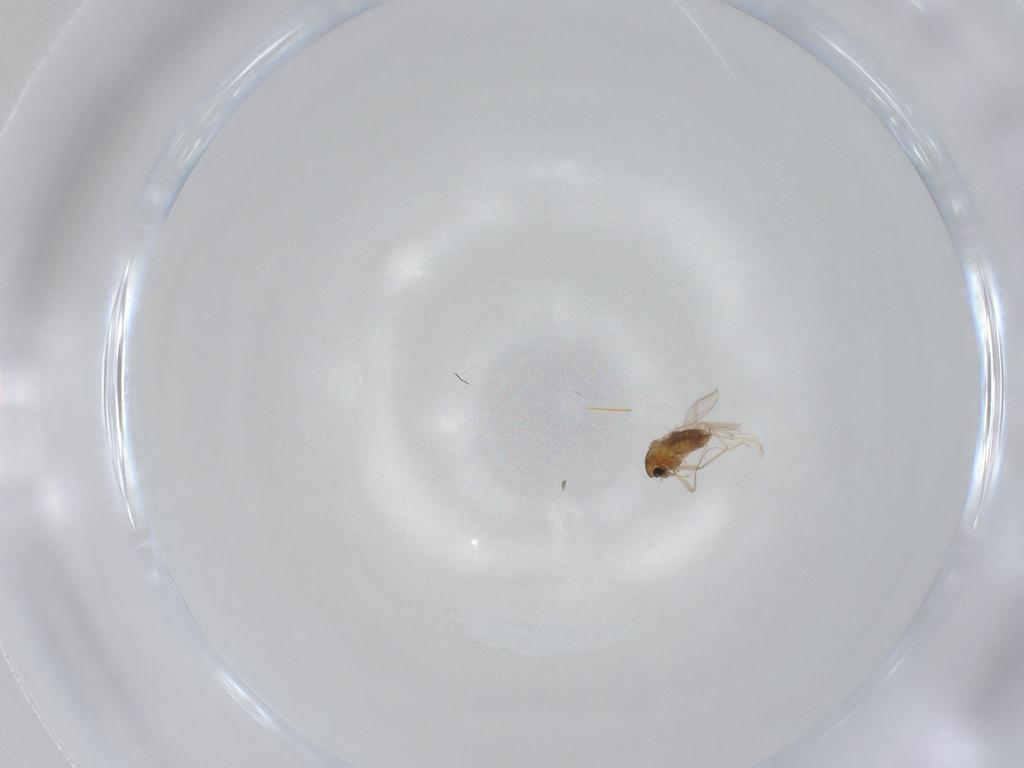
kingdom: Animalia
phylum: Arthropoda
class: Insecta
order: Diptera
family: Chironomidae
